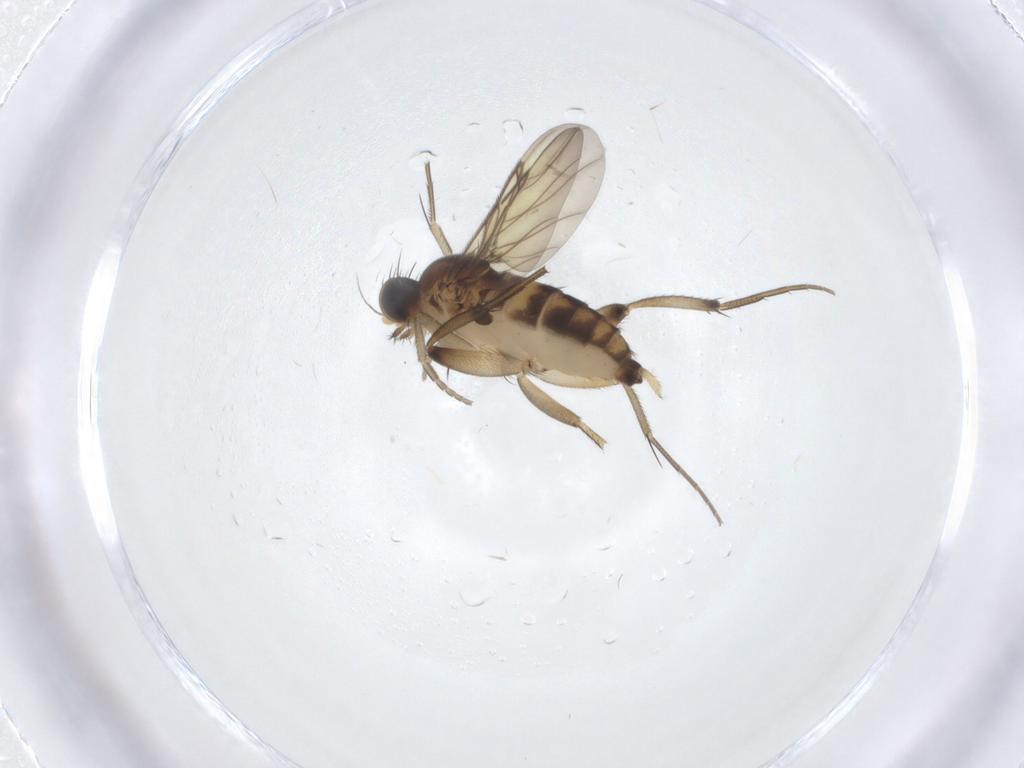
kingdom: Animalia
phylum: Arthropoda
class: Insecta
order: Diptera
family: Phoridae
